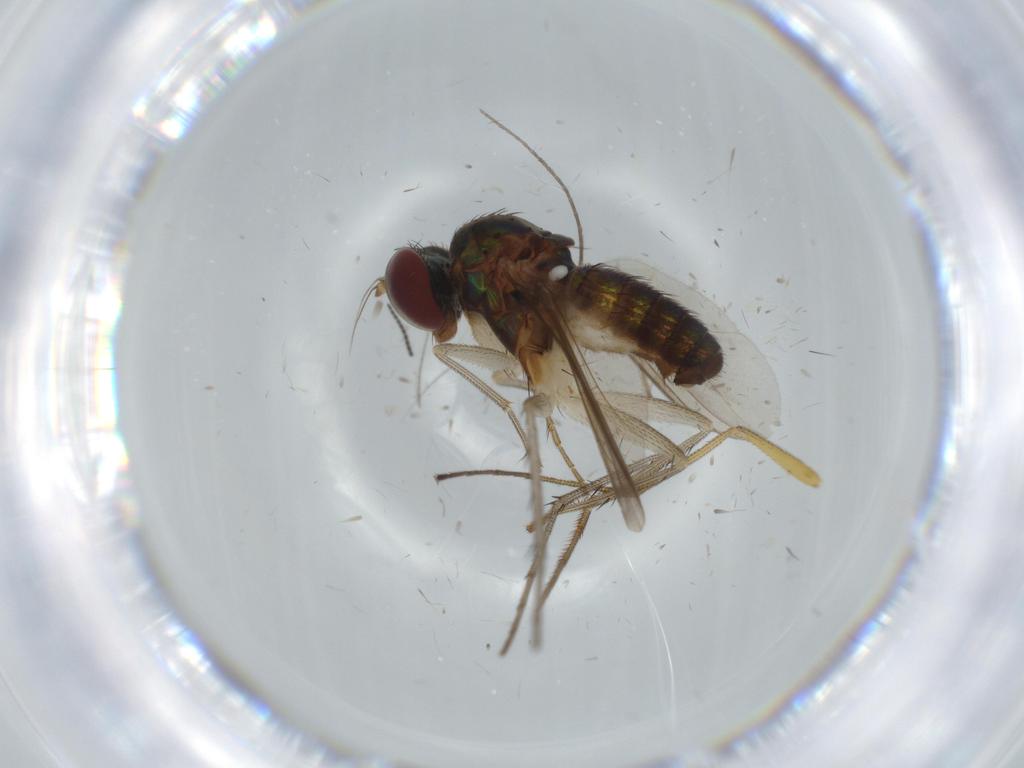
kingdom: Animalia
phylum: Arthropoda
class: Insecta
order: Diptera
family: Dolichopodidae
